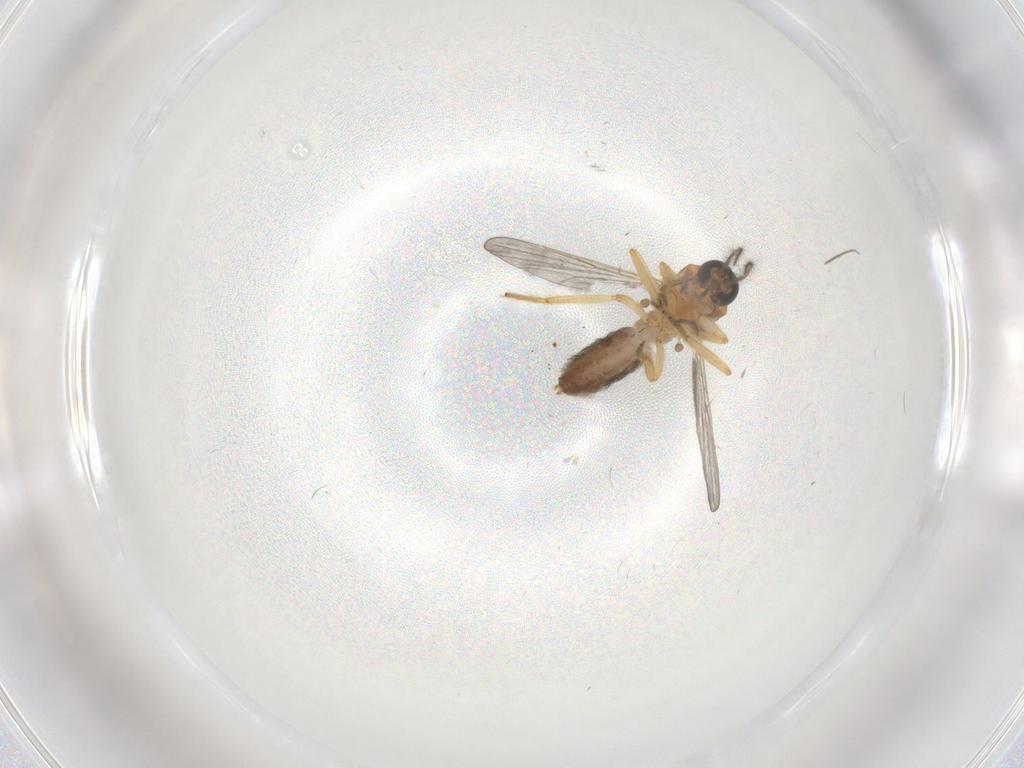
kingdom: Animalia
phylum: Arthropoda
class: Insecta
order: Diptera
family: Ceratopogonidae
